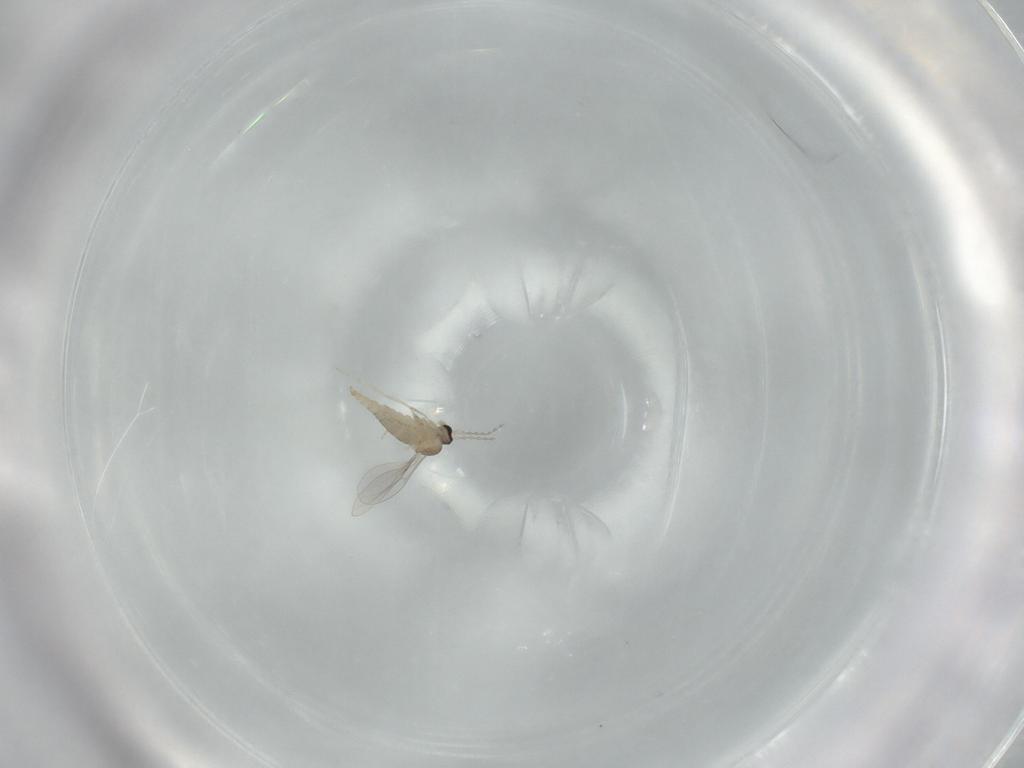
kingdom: Animalia
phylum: Arthropoda
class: Insecta
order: Diptera
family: Cecidomyiidae
